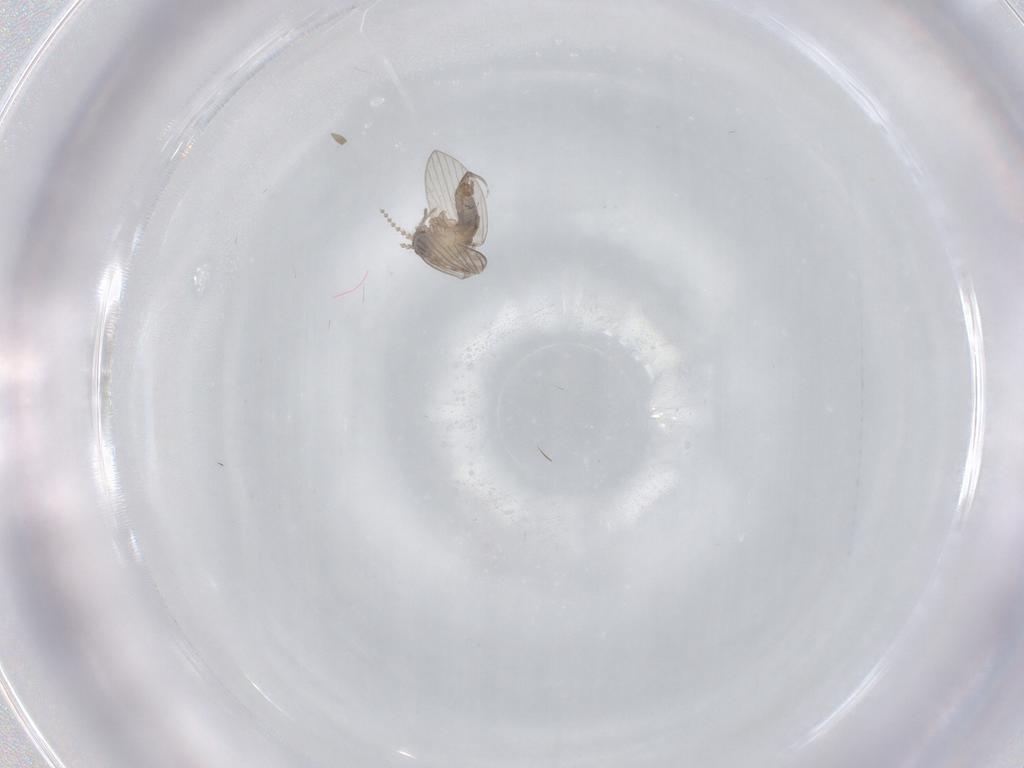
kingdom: Animalia
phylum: Arthropoda
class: Insecta
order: Diptera
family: Psychodidae
